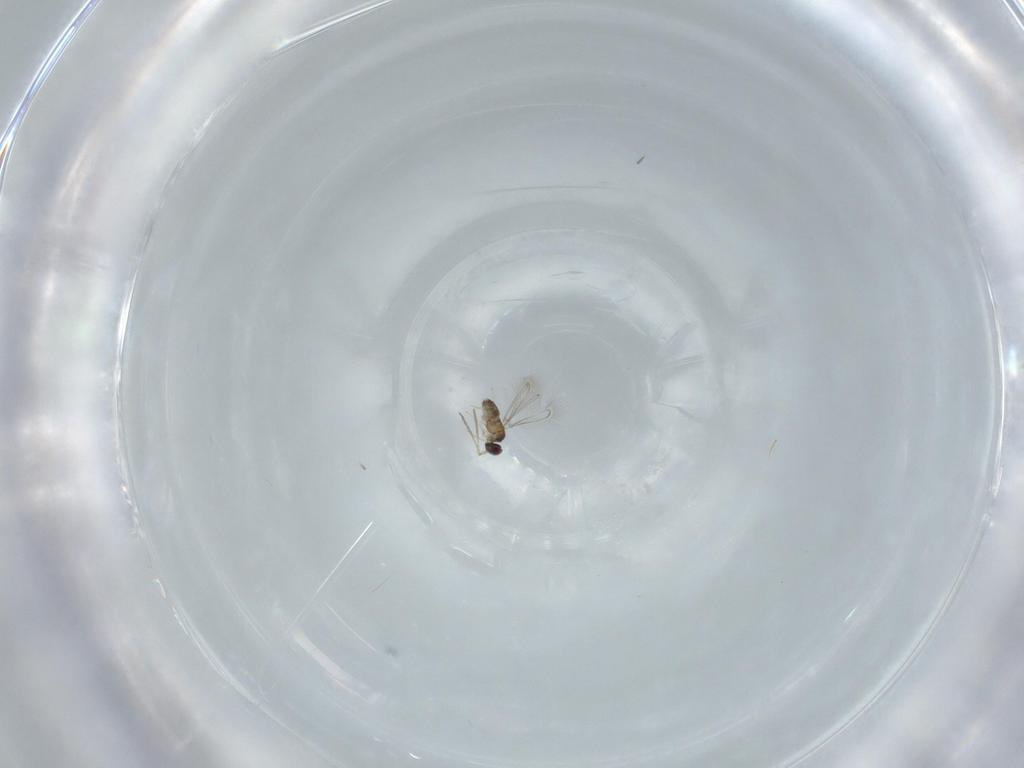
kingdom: Animalia
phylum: Arthropoda
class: Insecta
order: Hymenoptera
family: Mymaridae
